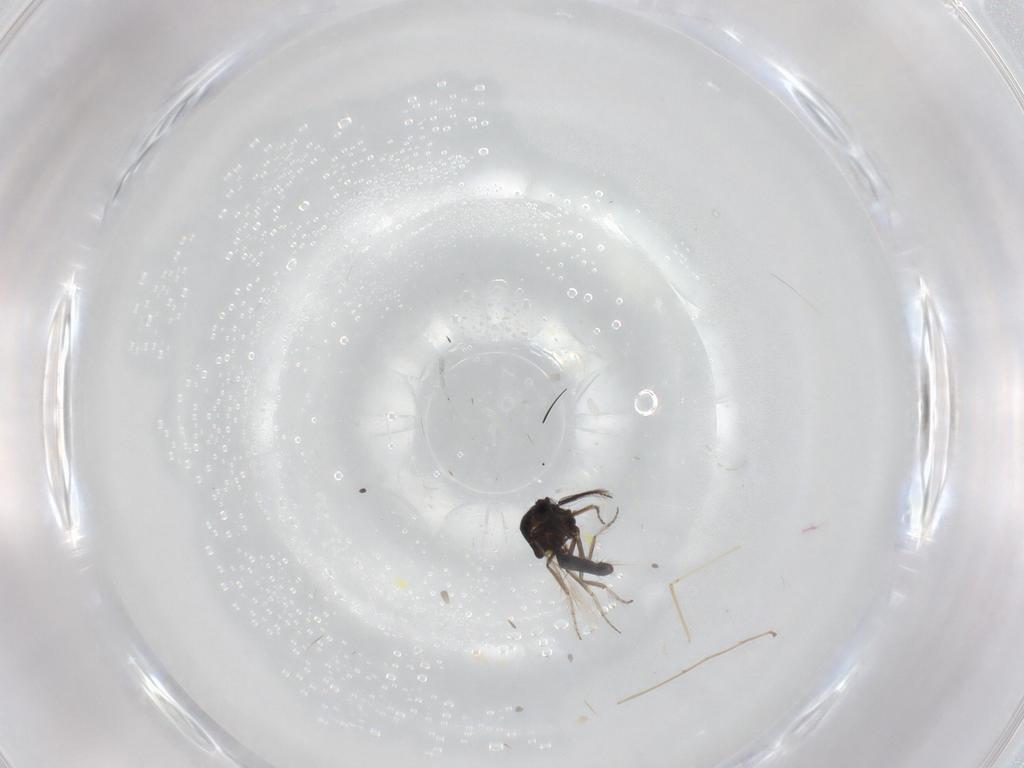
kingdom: Animalia
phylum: Arthropoda
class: Insecta
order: Diptera
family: Ceratopogonidae
